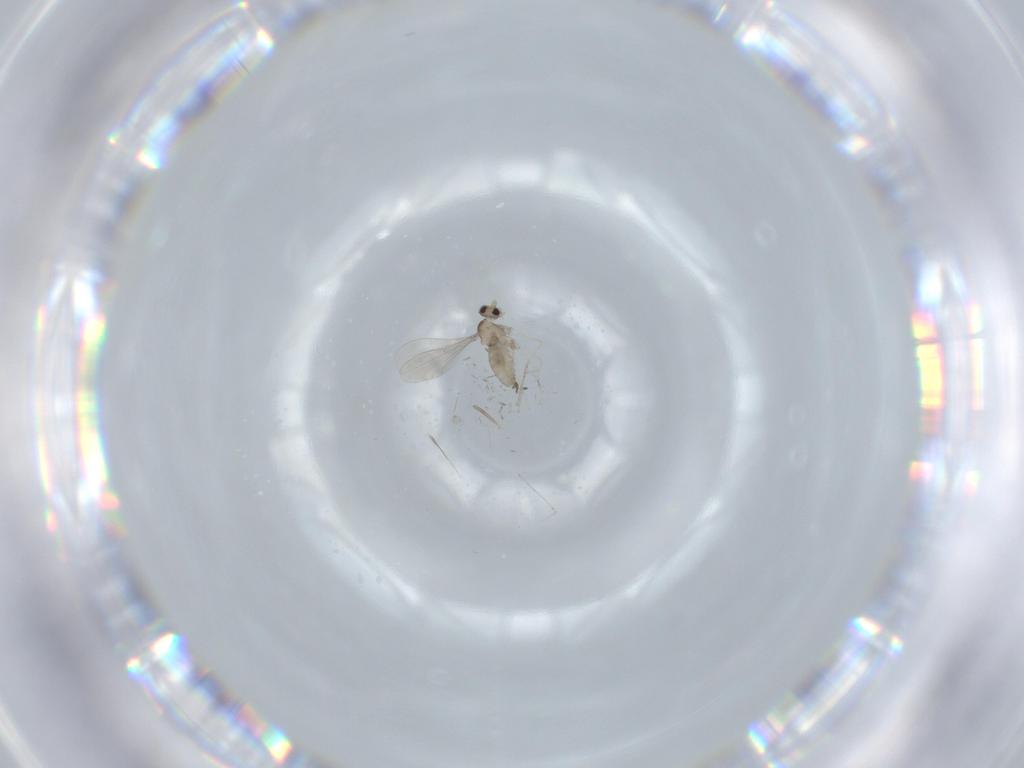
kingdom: Animalia
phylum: Arthropoda
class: Insecta
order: Diptera
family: Cecidomyiidae
